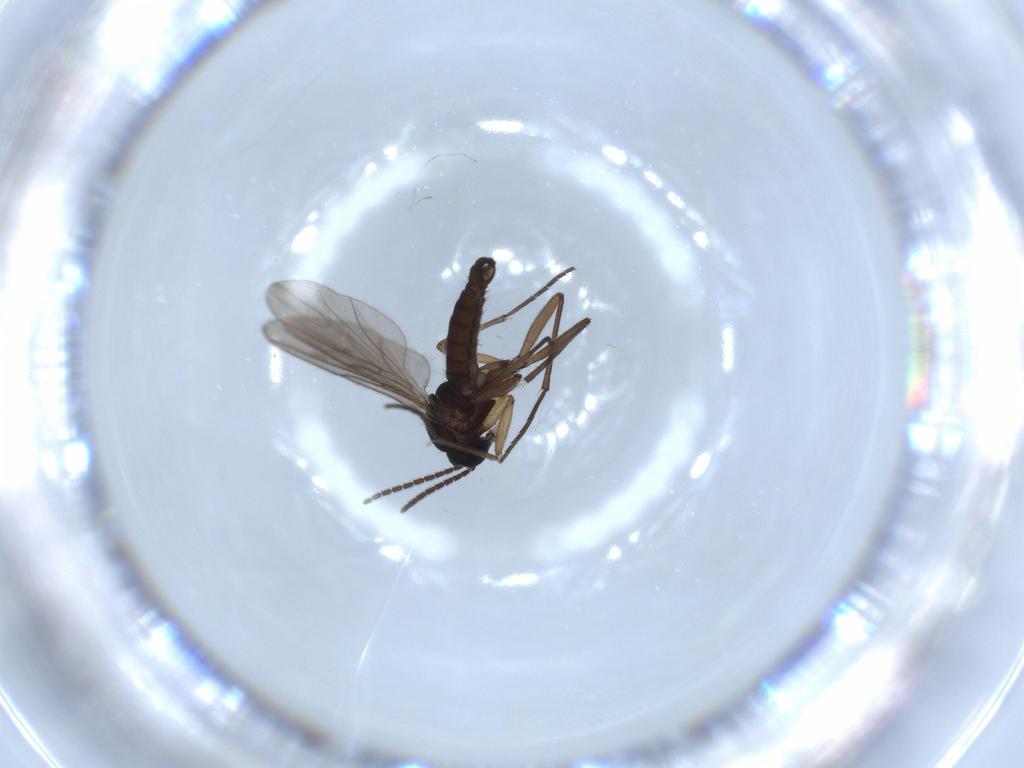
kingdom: Animalia
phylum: Arthropoda
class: Insecta
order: Diptera
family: Sciaridae
